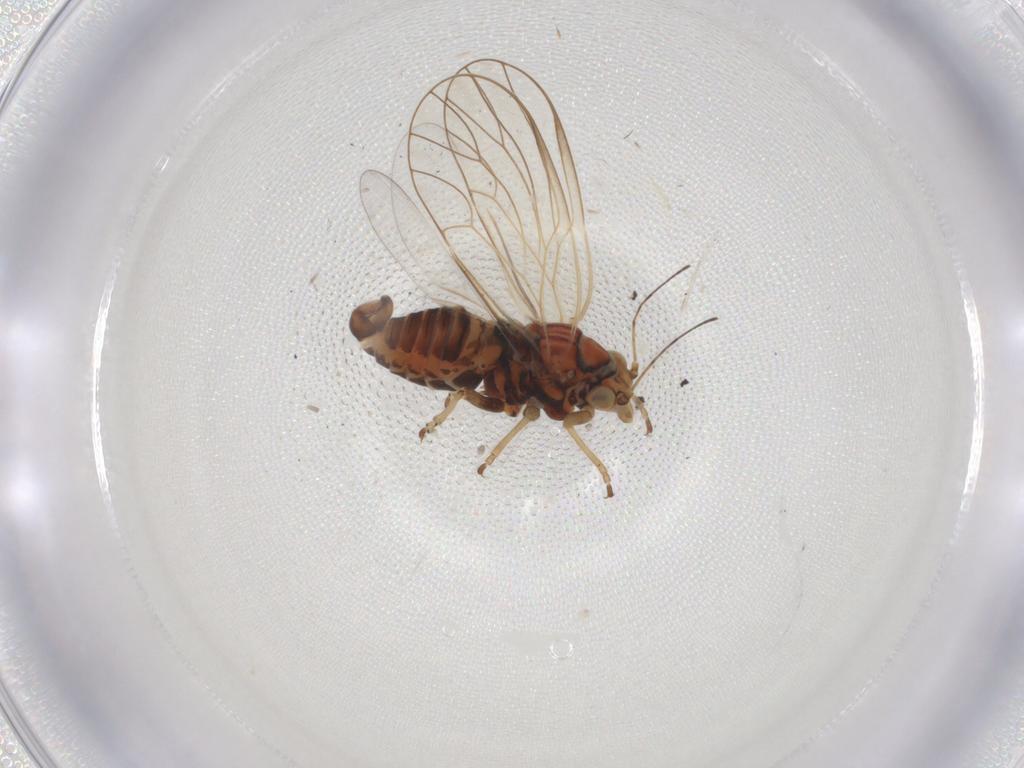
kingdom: Animalia
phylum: Arthropoda
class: Insecta
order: Hemiptera
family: Psyllidae
